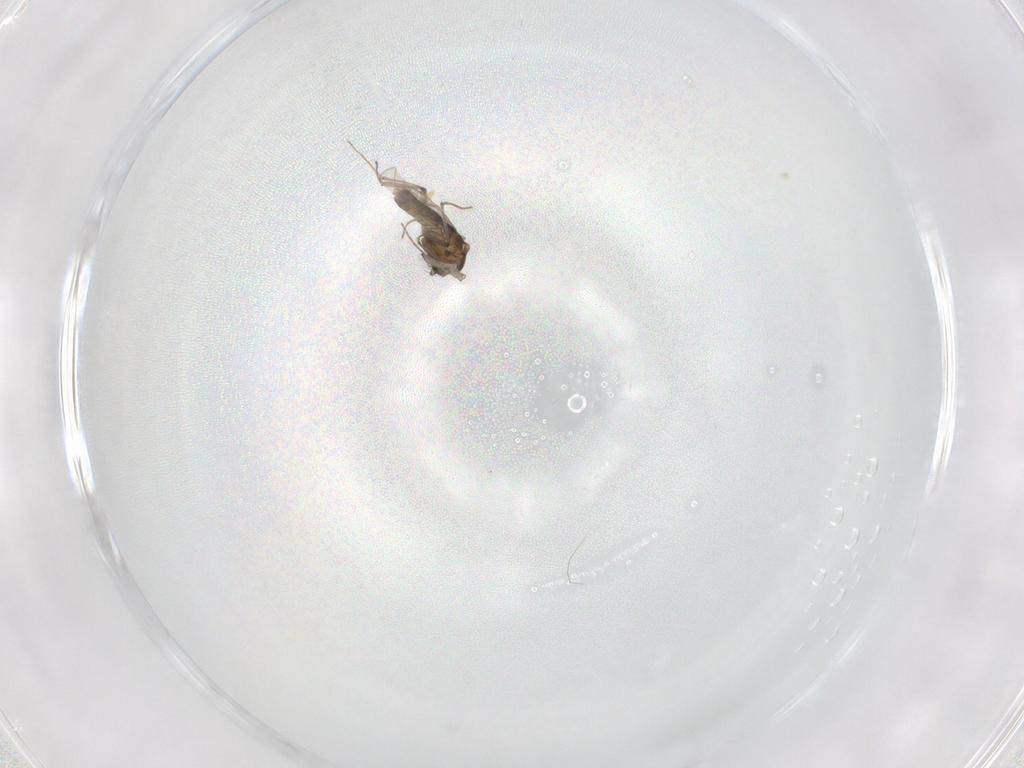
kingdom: Animalia
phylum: Arthropoda
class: Insecta
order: Diptera
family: Chironomidae
